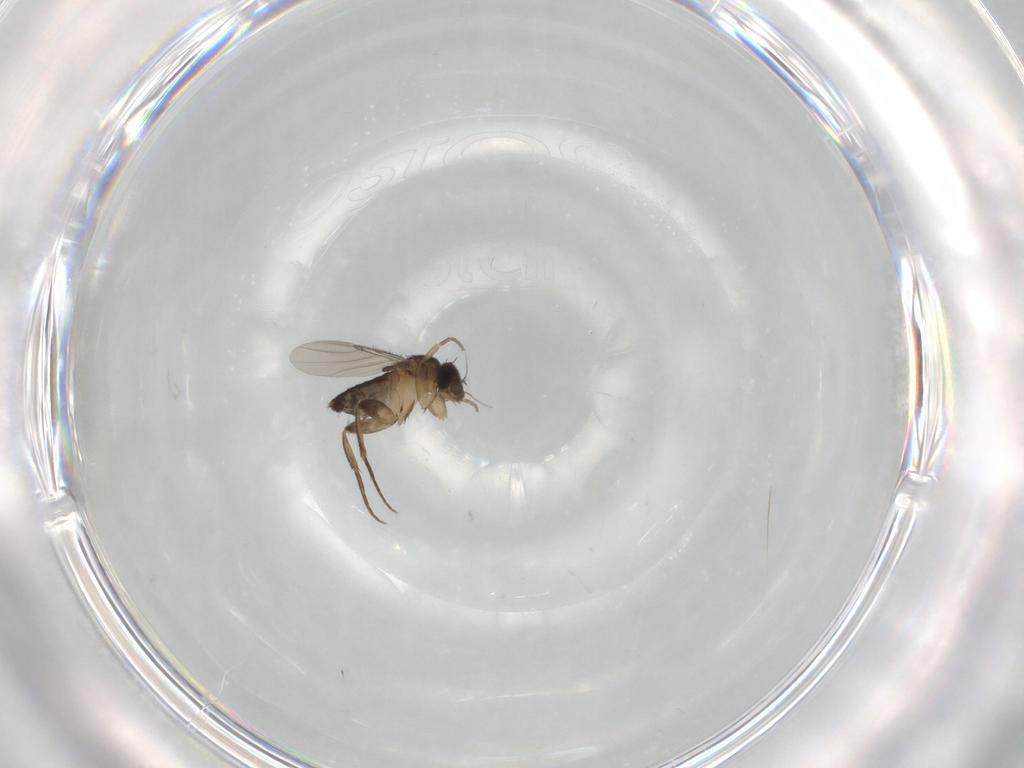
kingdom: Animalia
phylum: Arthropoda
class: Insecta
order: Diptera
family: Phoridae
